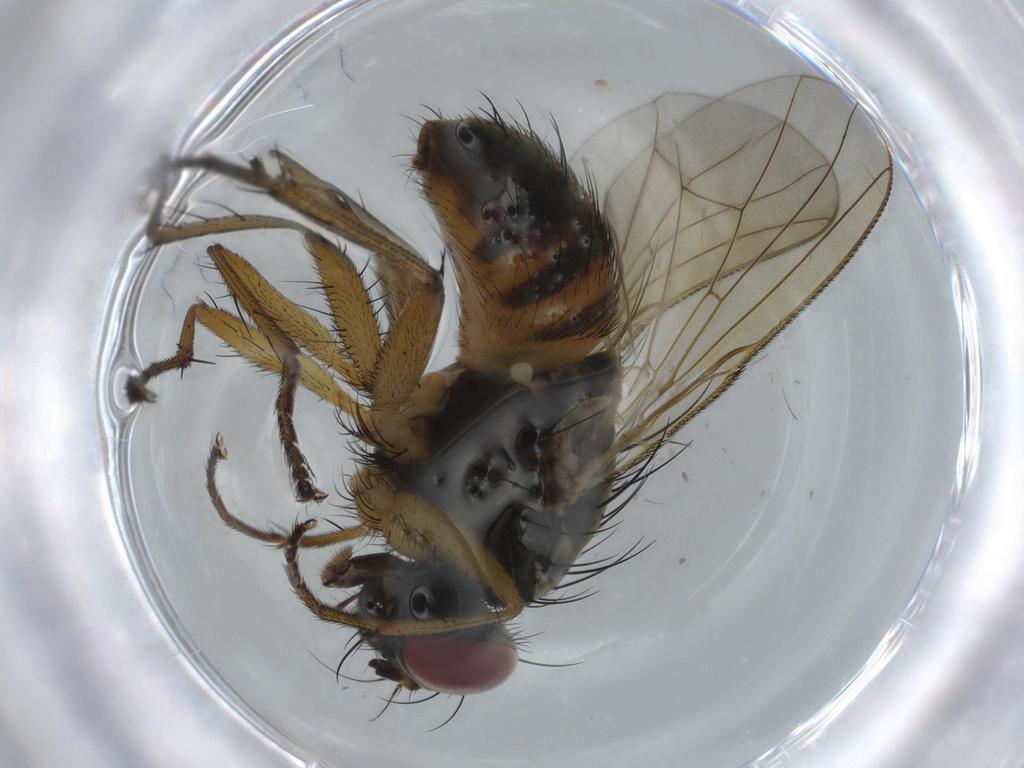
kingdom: Animalia
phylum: Arthropoda
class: Insecta
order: Diptera
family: Muscidae
